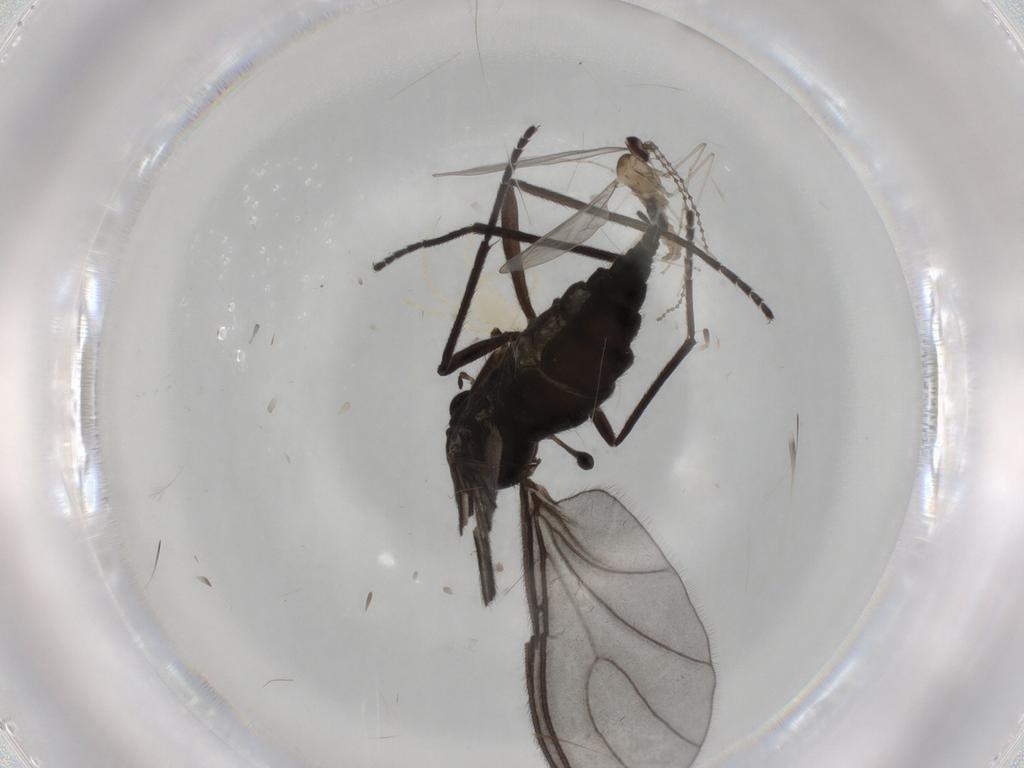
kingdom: Animalia
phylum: Arthropoda
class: Insecta
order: Diptera
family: Sciaridae
